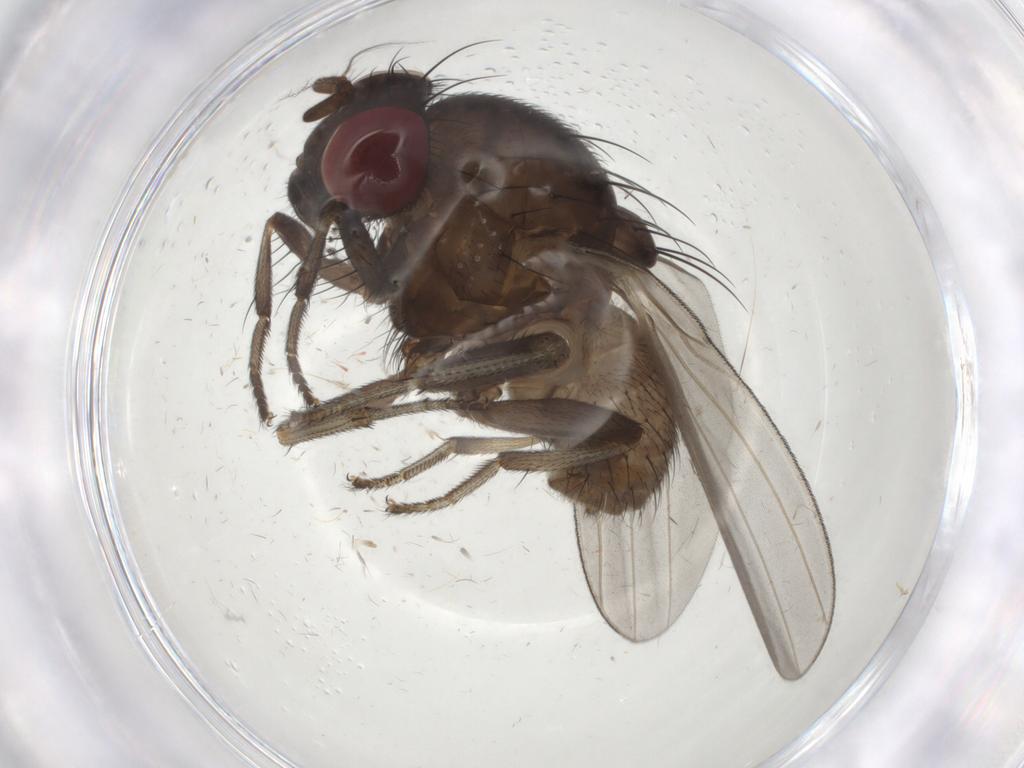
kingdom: Animalia
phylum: Arthropoda
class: Insecta
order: Diptera
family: Lauxaniidae
